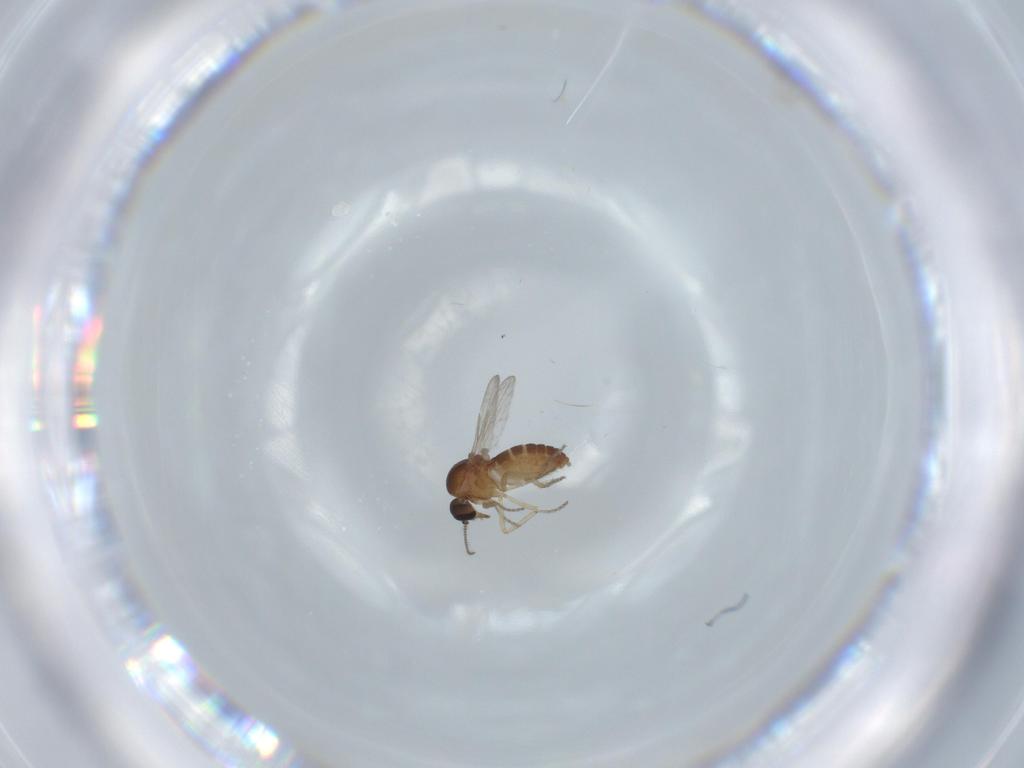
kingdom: Animalia
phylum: Arthropoda
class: Insecta
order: Diptera
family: Ceratopogonidae
